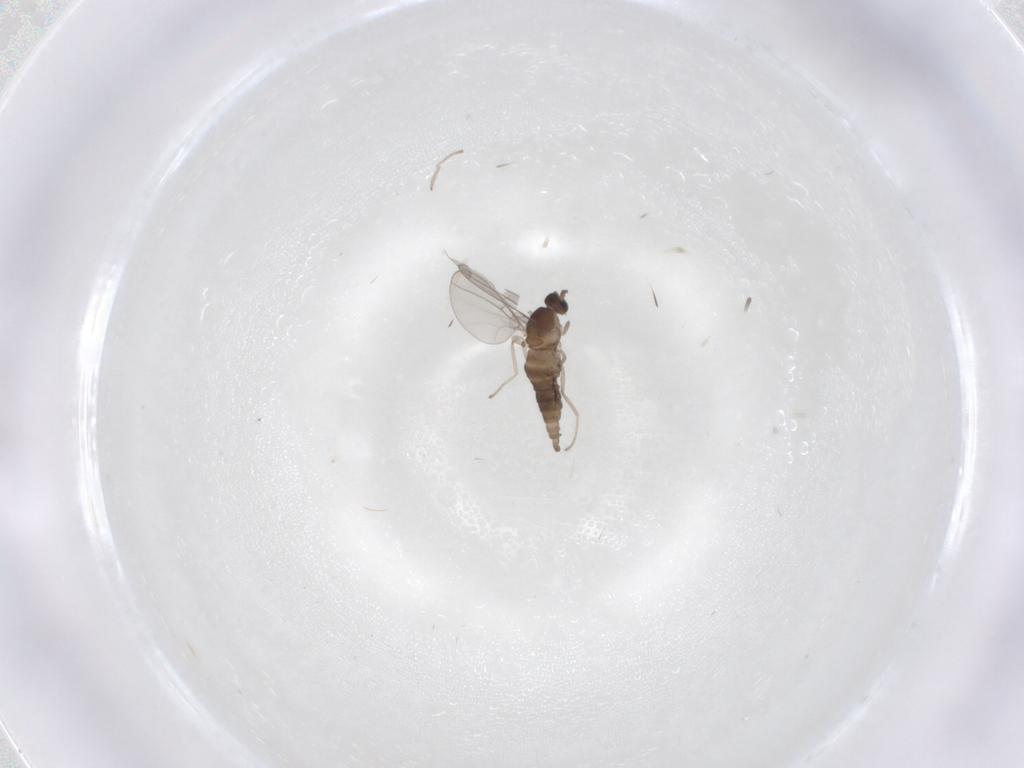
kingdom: Animalia
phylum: Arthropoda
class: Insecta
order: Diptera
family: Cecidomyiidae
